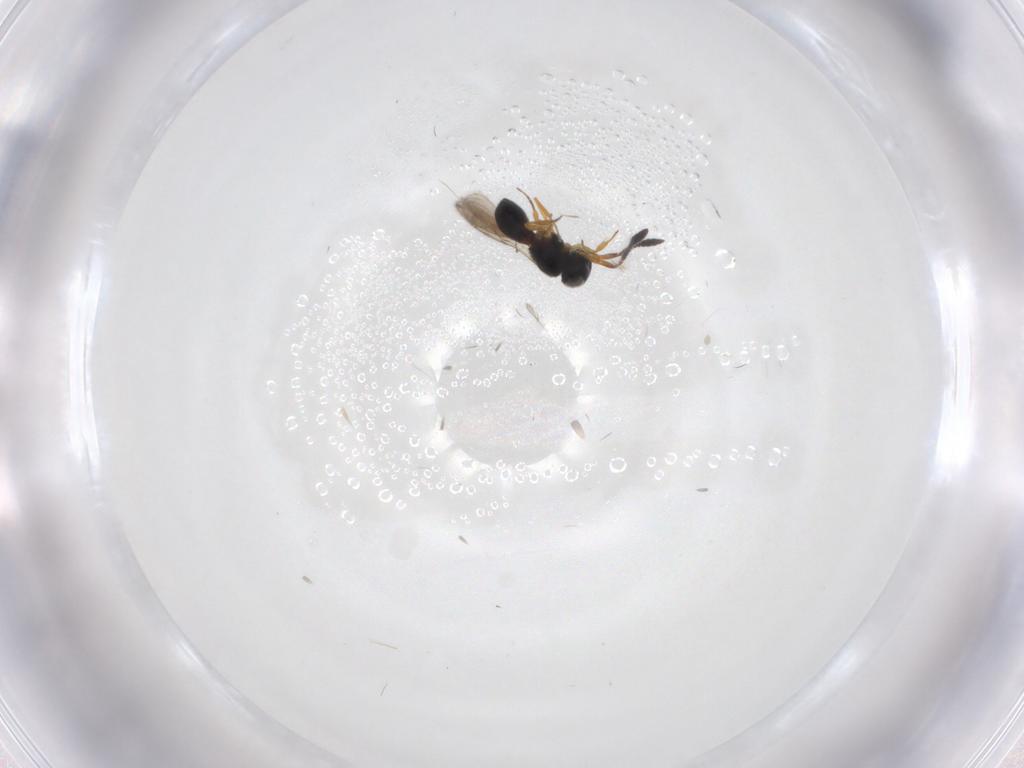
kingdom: Animalia
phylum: Arthropoda
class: Insecta
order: Hymenoptera
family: Scelionidae
